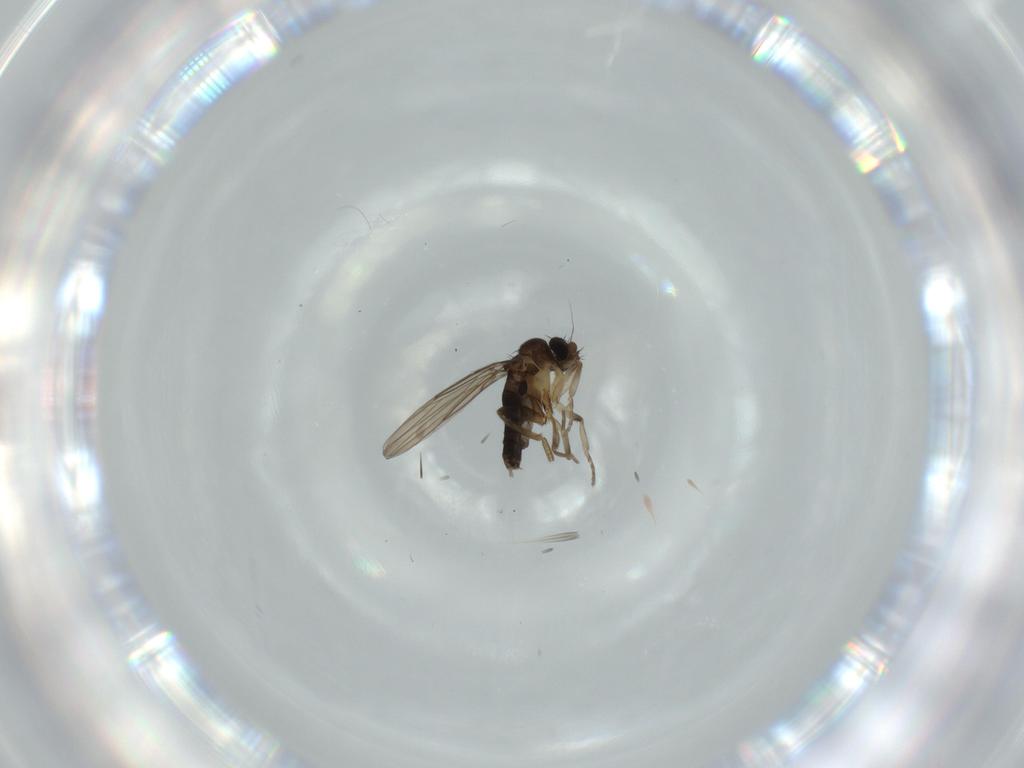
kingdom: Animalia
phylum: Arthropoda
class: Insecta
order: Diptera
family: Phoridae
